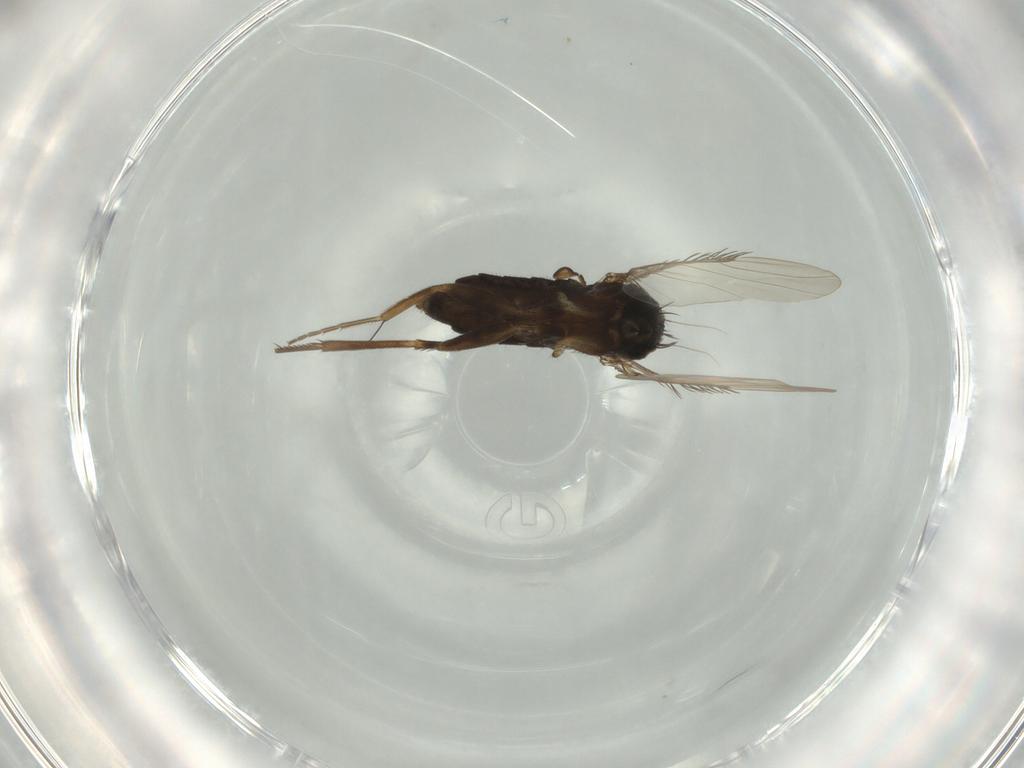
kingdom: Animalia
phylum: Arthropoda
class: Insecta
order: Diptera
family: Phoridae
